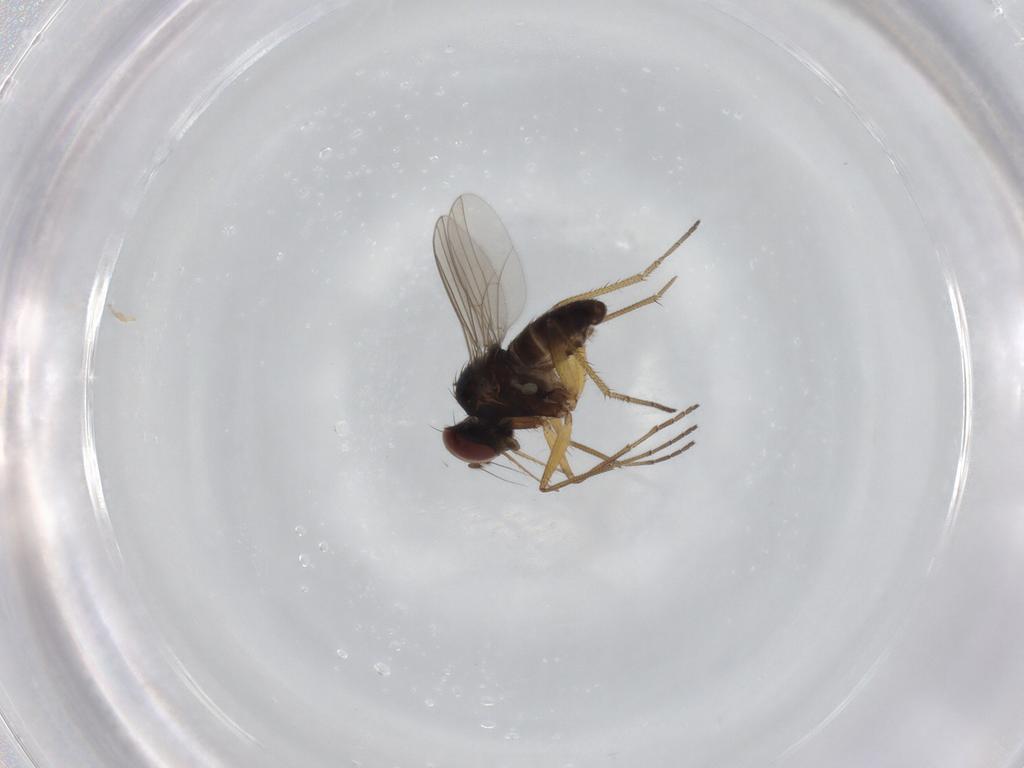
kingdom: Animalia
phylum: Arthropoda
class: Insecta
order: Diptera
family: Dolichopodidae
